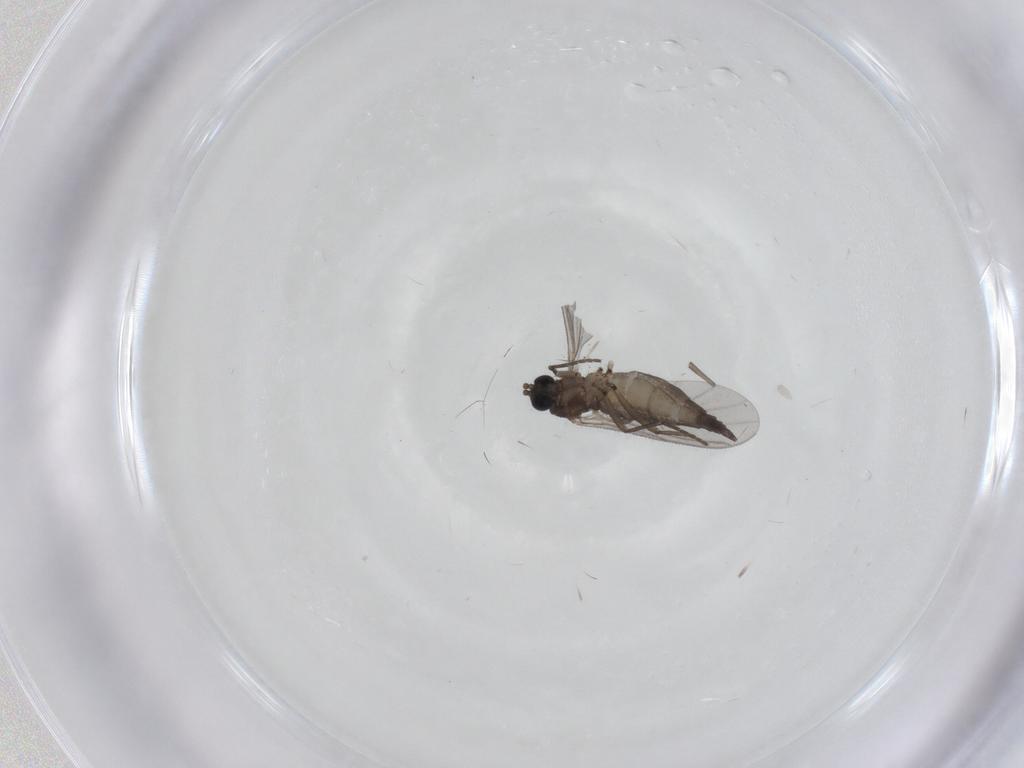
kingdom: Animalia
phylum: Arthropoda
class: Insecta
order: Diptera
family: Sciaridae
